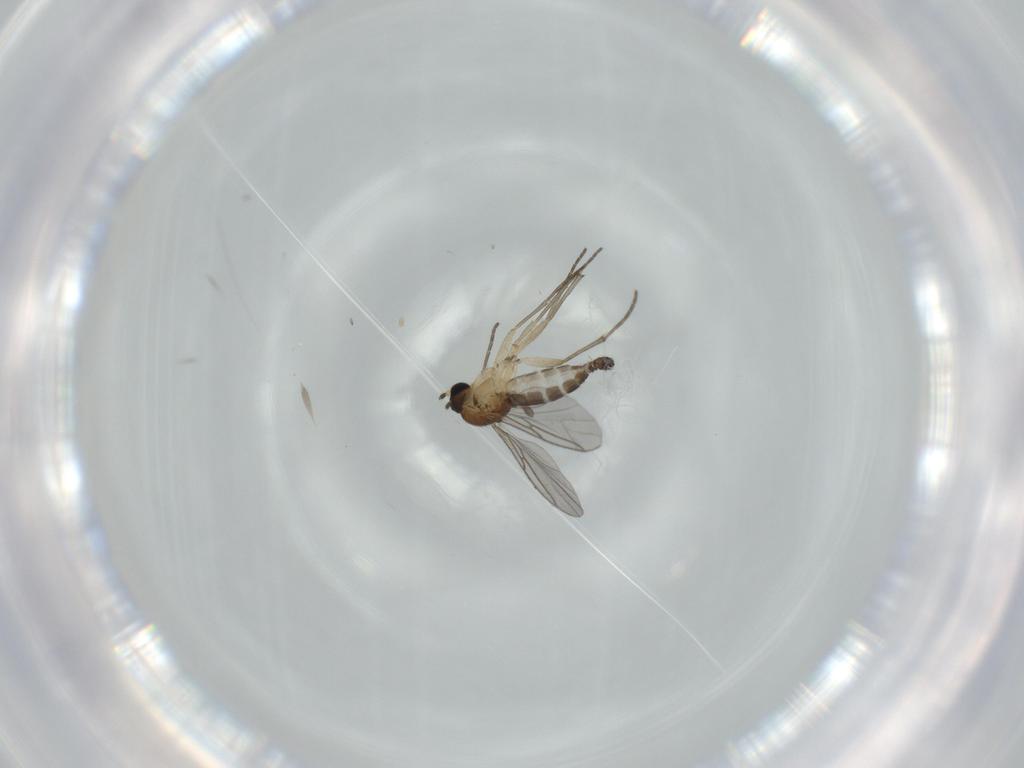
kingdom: Animalia
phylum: Arthropoda
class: Insecta
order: Diptera
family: Sciaridae
